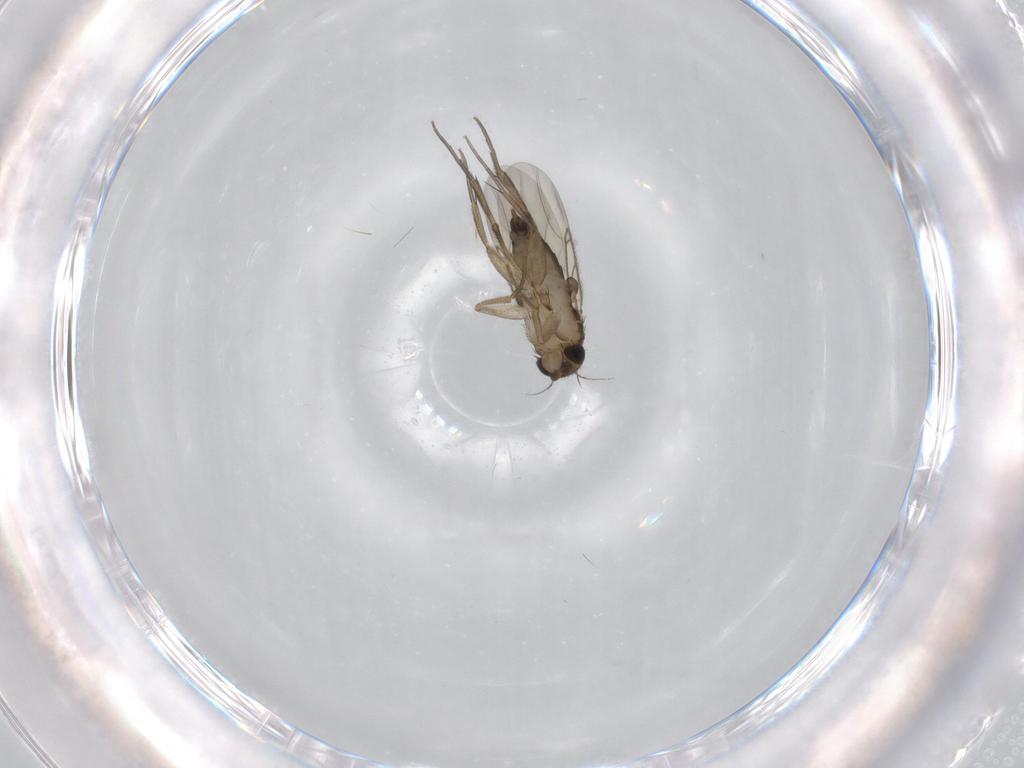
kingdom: Animalia
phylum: Arthropoda
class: Insecta
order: Diptera
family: Phoridae
